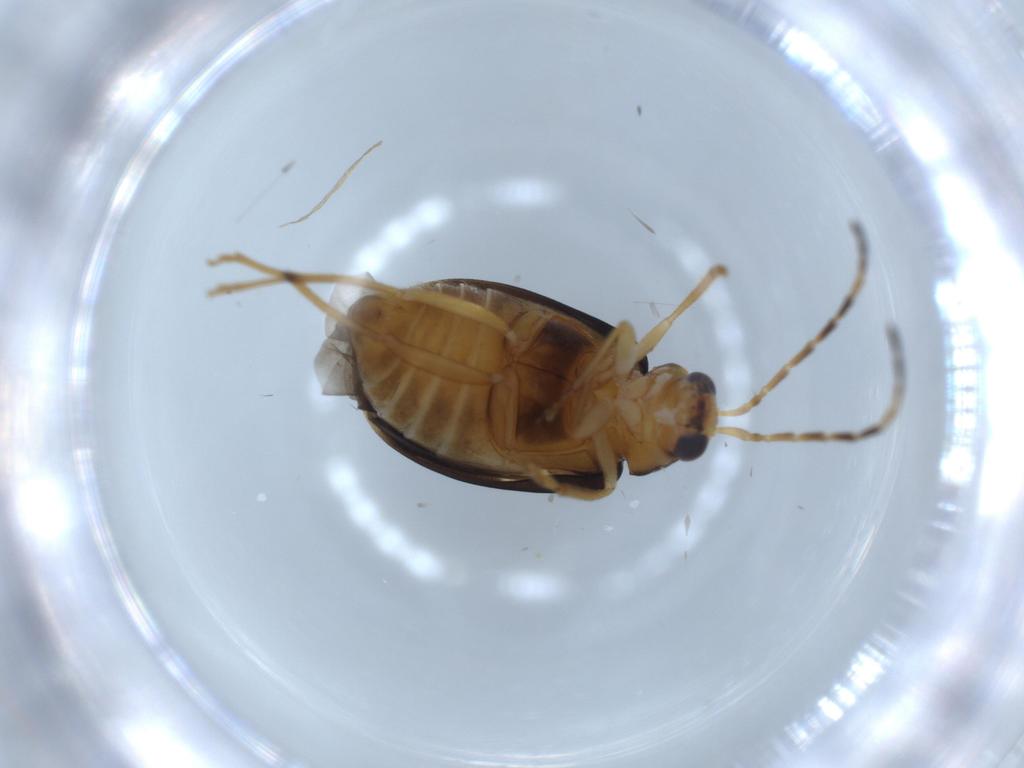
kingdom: Animalia
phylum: Arthropoda
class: Insecta
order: Coleoptera
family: Chrysomelidae
